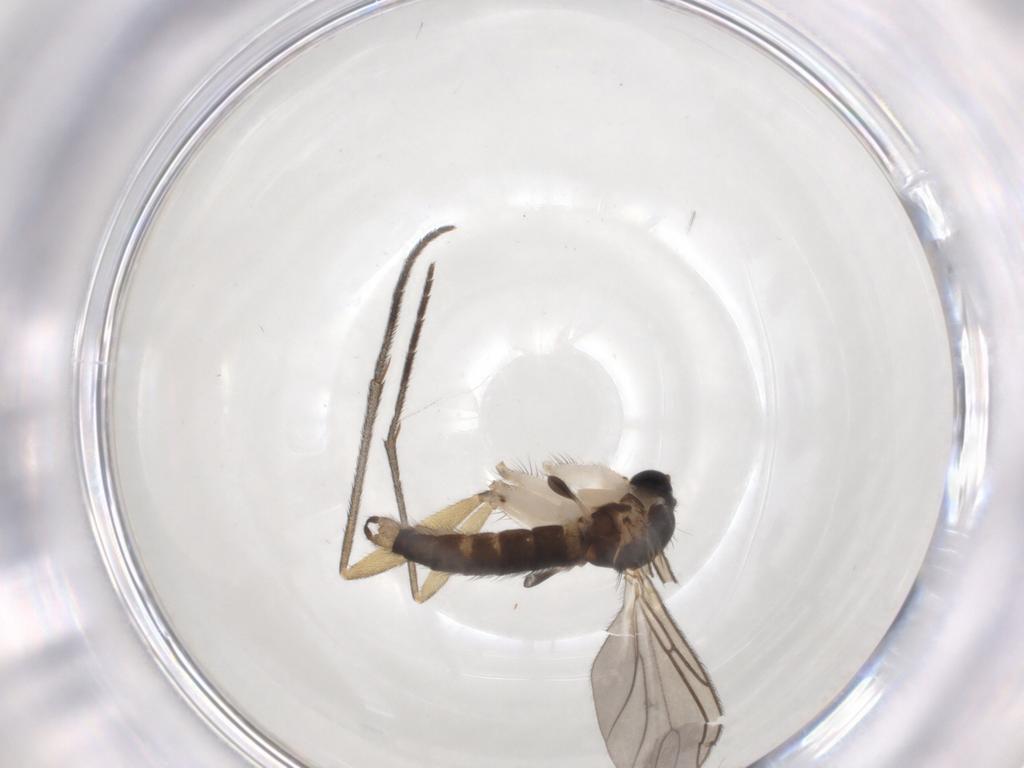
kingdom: Animalia
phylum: Arthropoda
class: Insecta
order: Diptera
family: Sciaridae
